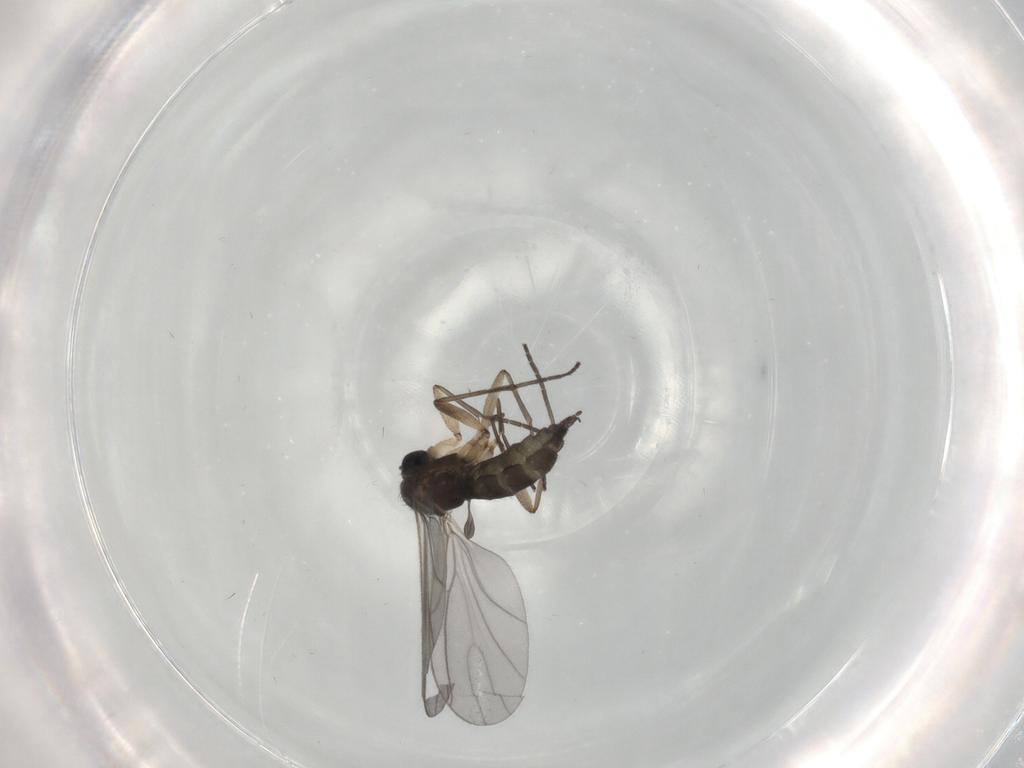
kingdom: Animalia
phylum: Arthropoda
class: Insecta
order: Diptera
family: Sciaridae
